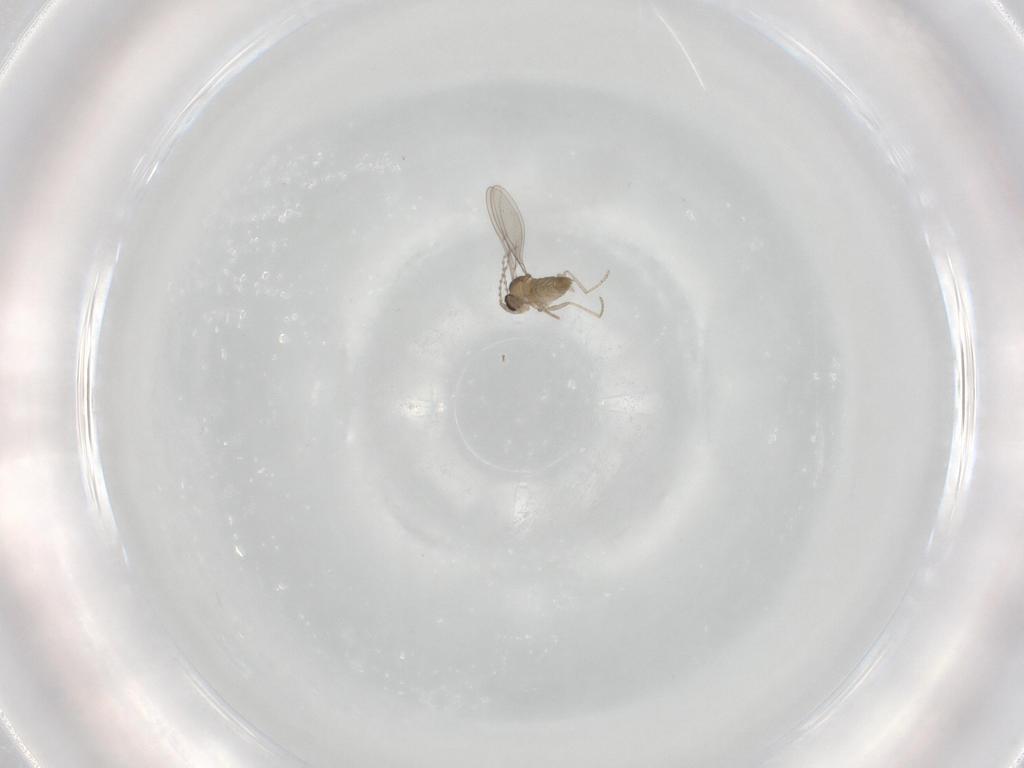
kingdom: Animalia
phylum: Arthropoda
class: Insecta
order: Diptera
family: Cecidomyiidae
